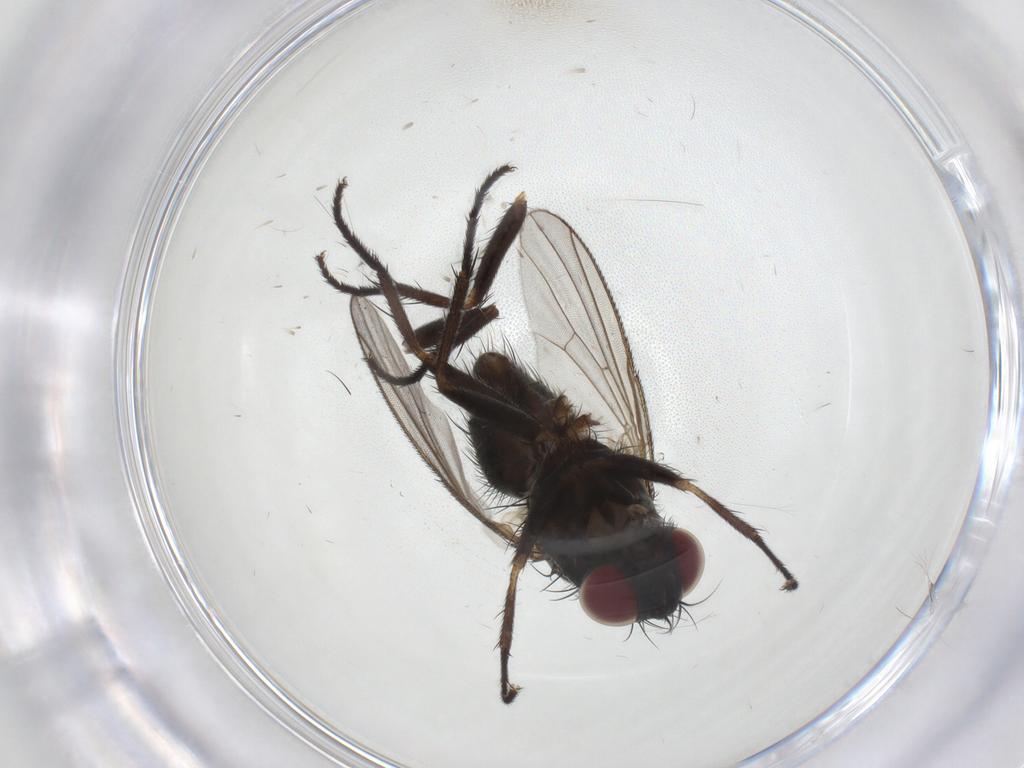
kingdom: Animalia
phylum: Arthropoda
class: Insecta
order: Diptera
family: Muscidae
